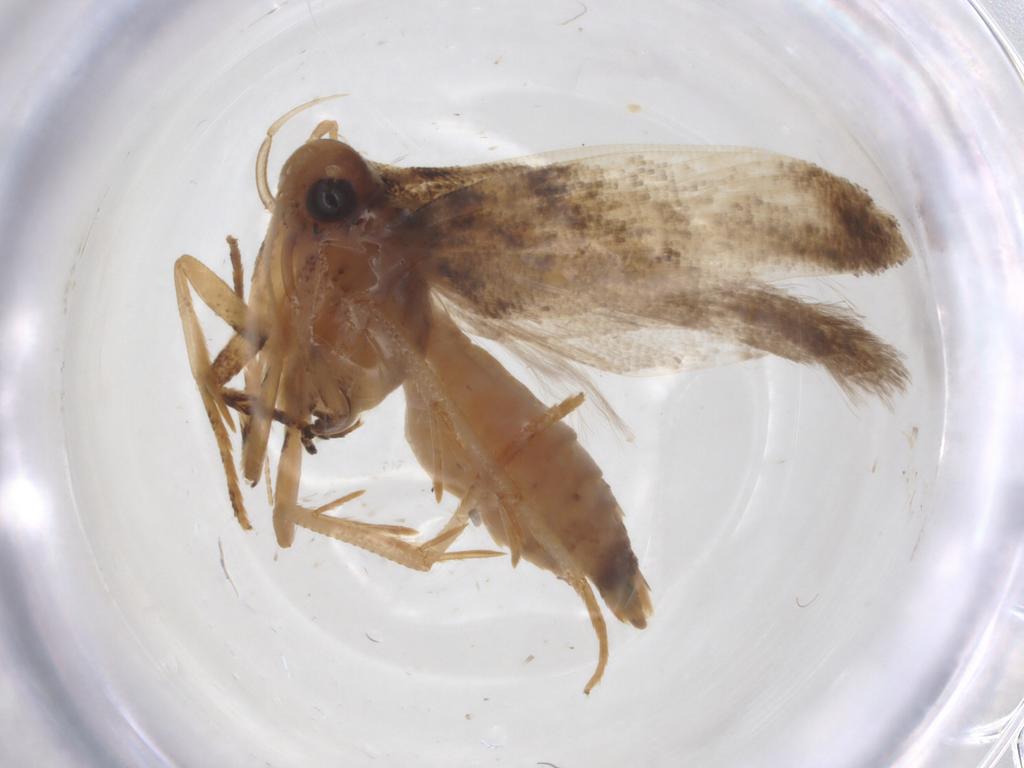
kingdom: Animalia
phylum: Arthropoda
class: Insecta
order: Lepidoptera
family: Gelechiidae
